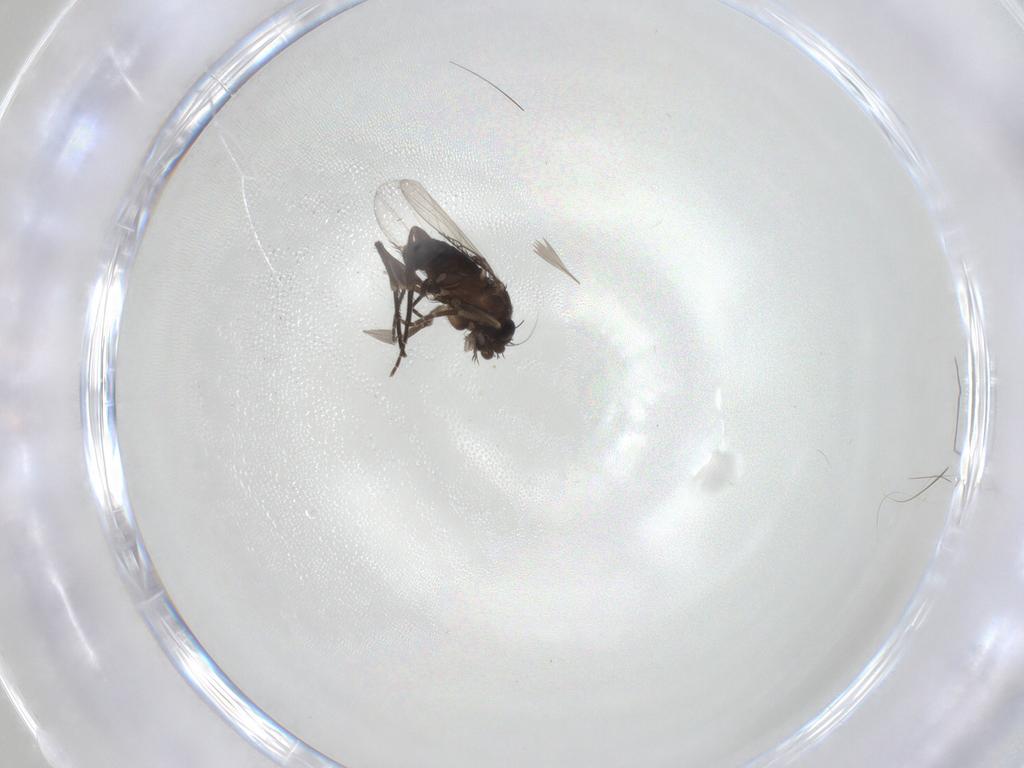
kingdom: Animalia
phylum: Arthropoda
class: Insecta
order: Diptera
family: Phoridae
